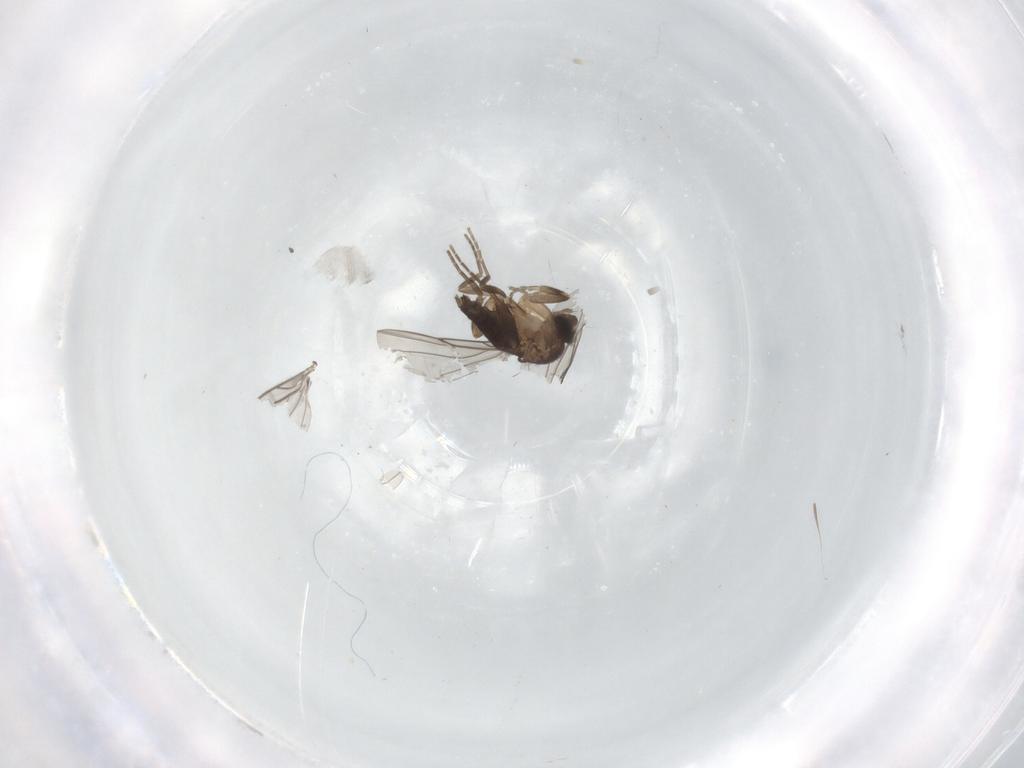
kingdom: Animalia
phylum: Arthropoda
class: Insecta
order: Diptera
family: Phoridae
